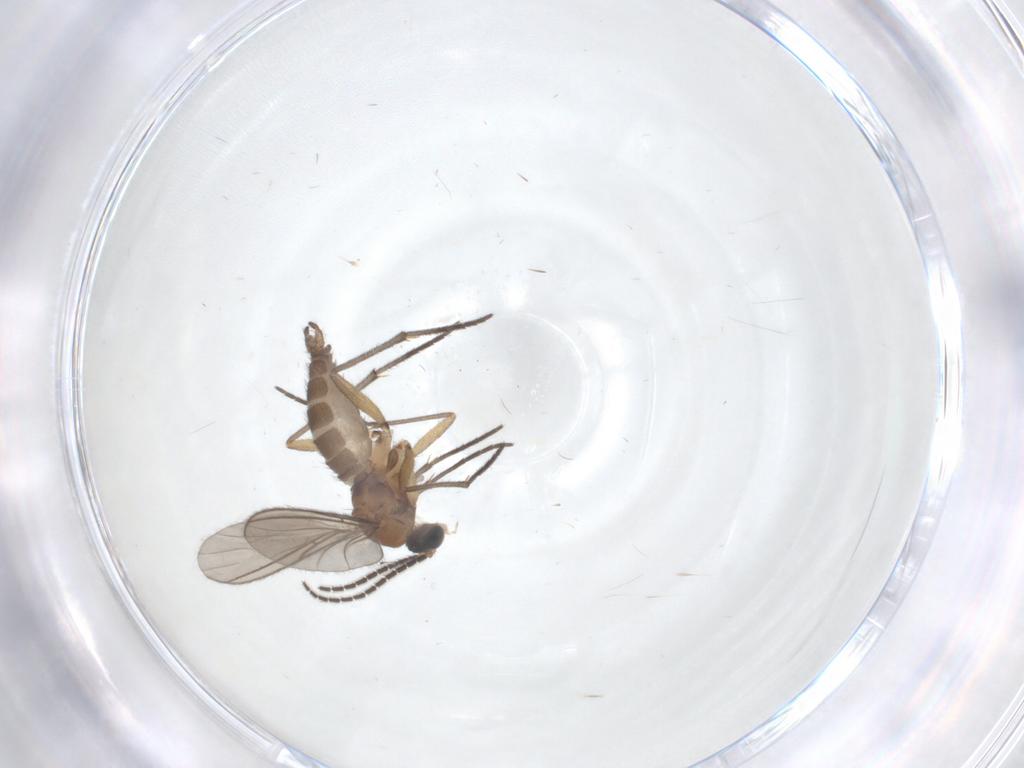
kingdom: Animalia
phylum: Arthropoda
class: Insecta
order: Diptera
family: Sciaridae
